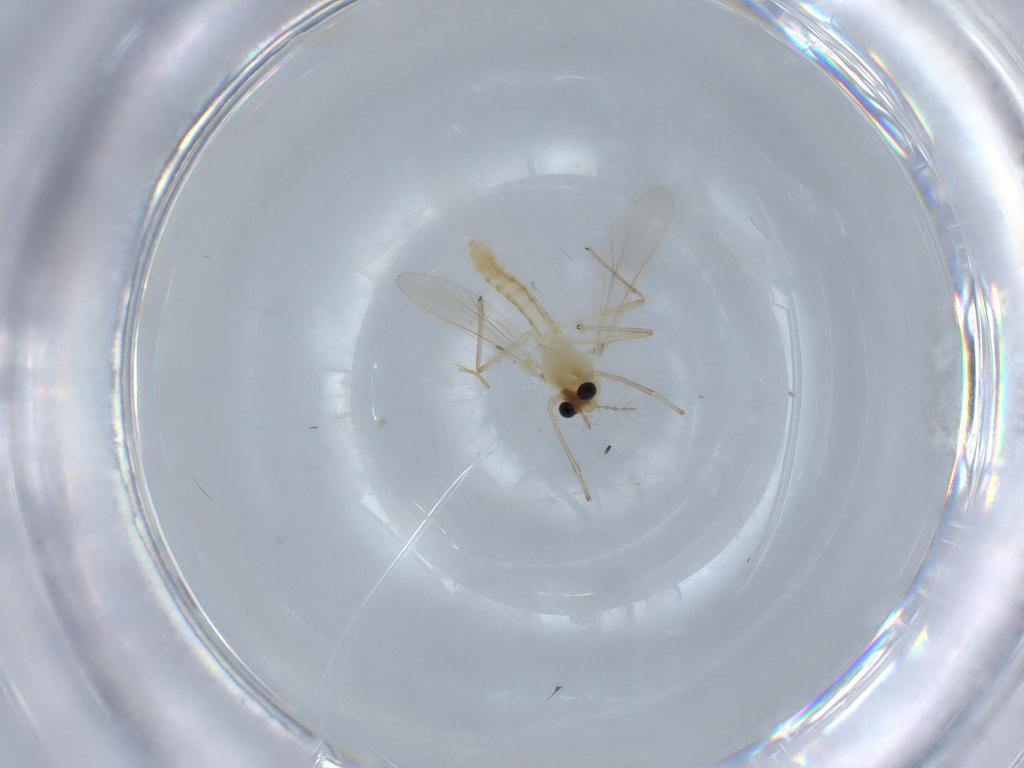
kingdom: Animalia
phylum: Arthropoda
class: Insecta
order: Diptera
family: Chironomidae
